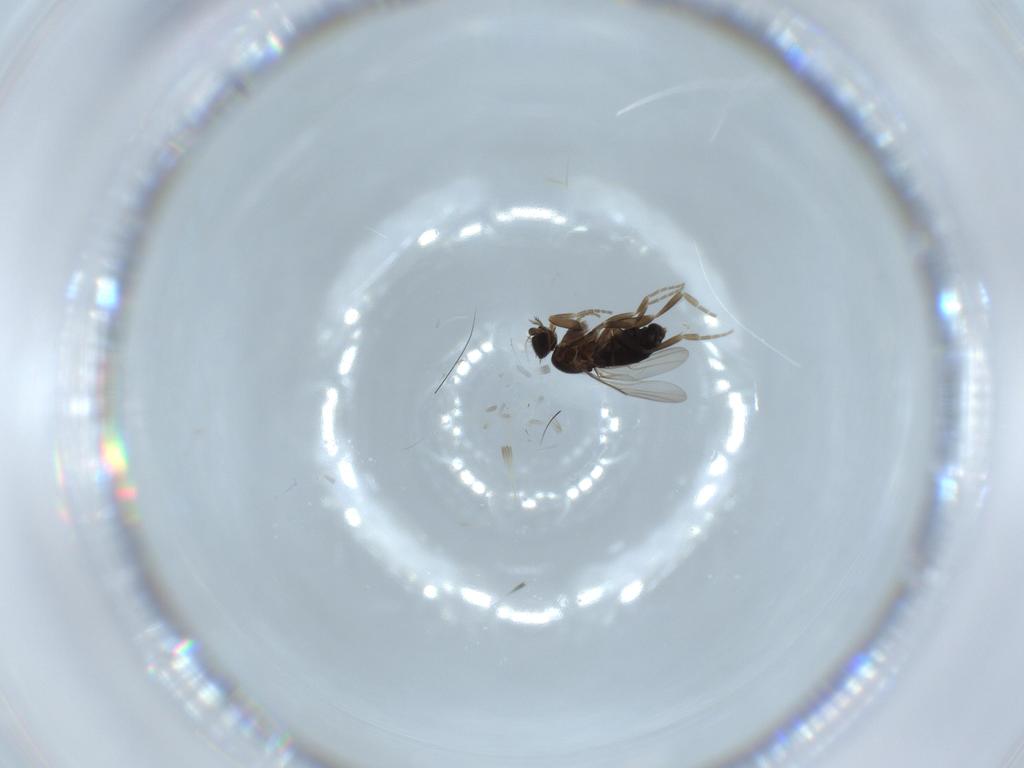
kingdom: Animalia
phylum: Arthropoda
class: Insecta
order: Diptera
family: Phoridae
